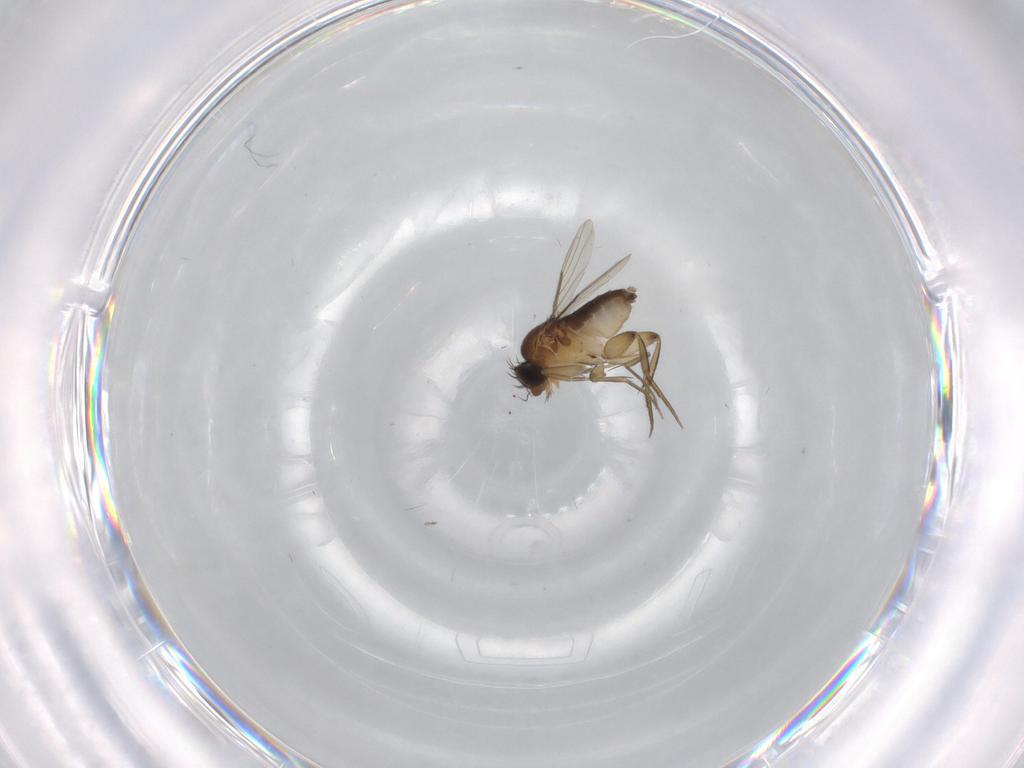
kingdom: Animalia
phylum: Arthropoda
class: Insecta
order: Diptera
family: Phoridae
